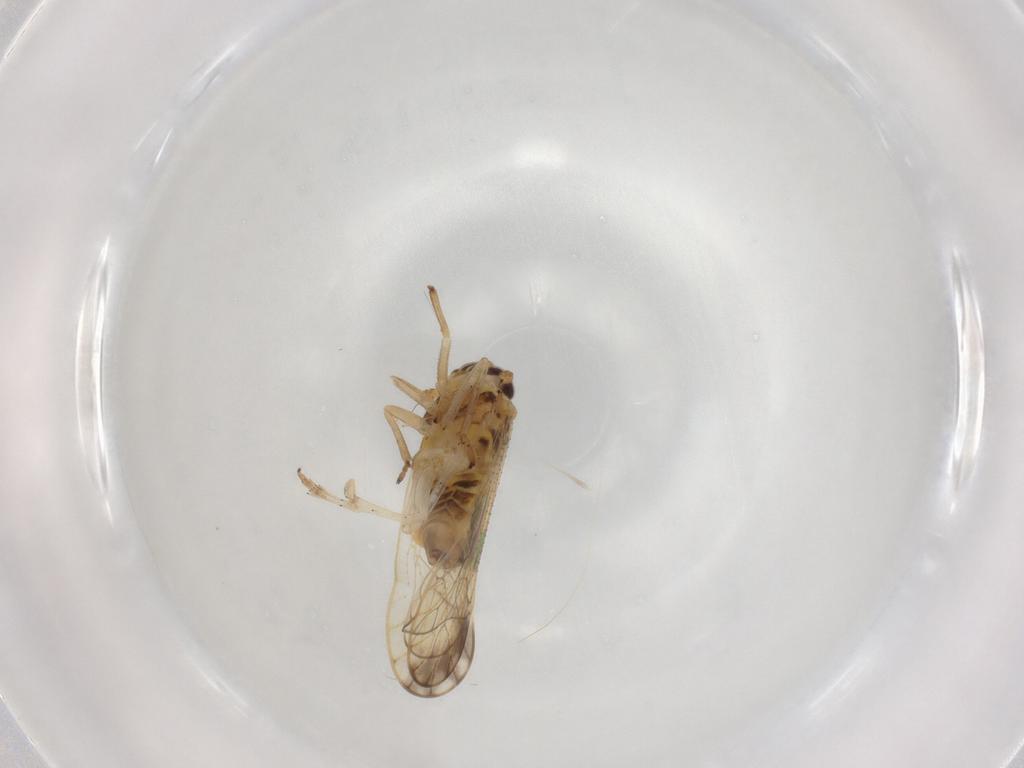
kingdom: Animalia
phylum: Arthropoda
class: Insecta
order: Hemiptera
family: Delphacidae
